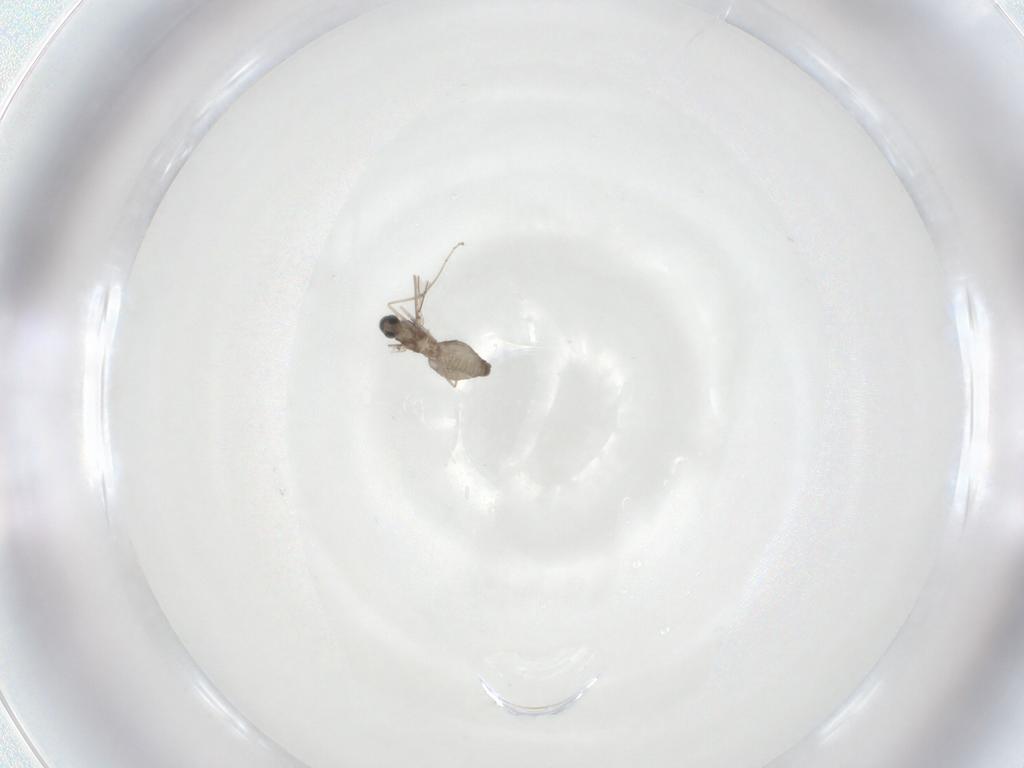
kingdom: Animalia
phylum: Arthropoda
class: Insecta
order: Diptera
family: Cecidomyiidae
